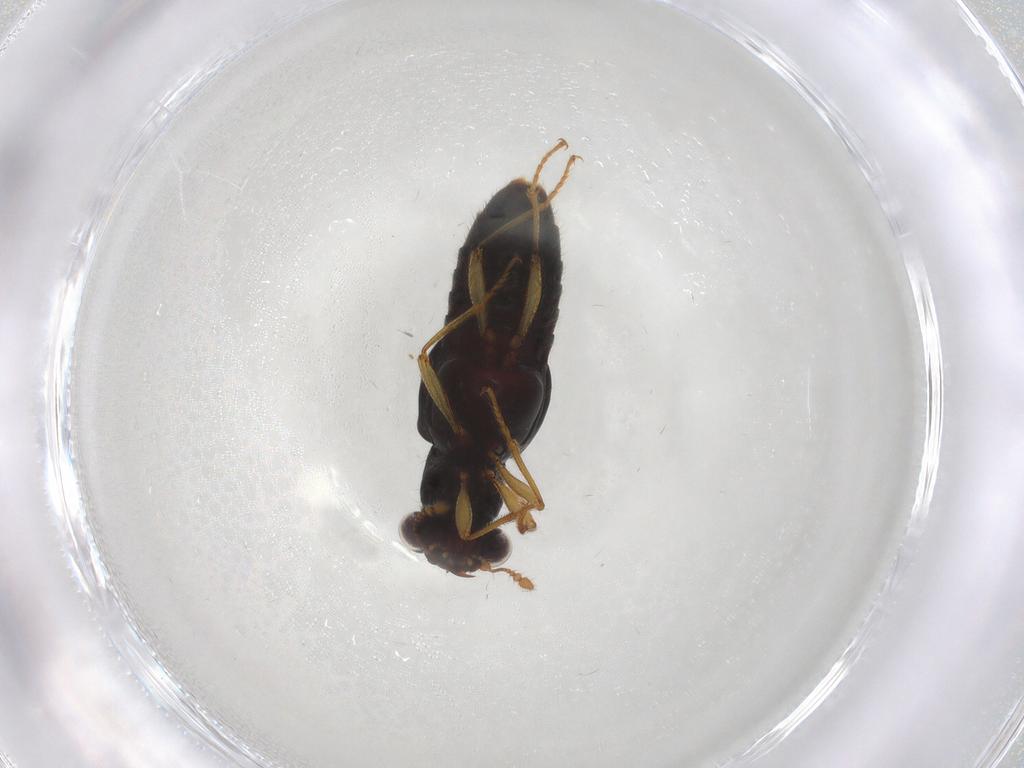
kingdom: Animalia
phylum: Arthropoda
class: Insecta
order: Coleoptera
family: Staphylinidae
